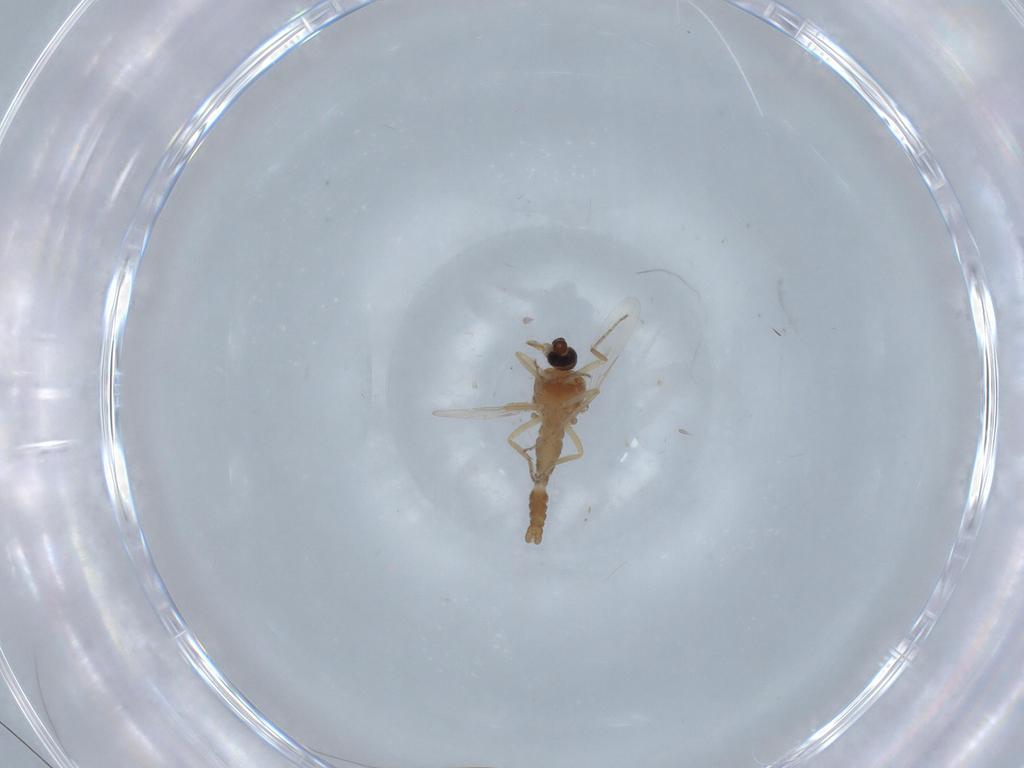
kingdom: Animalia
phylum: Arthropoda
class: Insecta
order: Diptera
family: Ceratopogonidae
